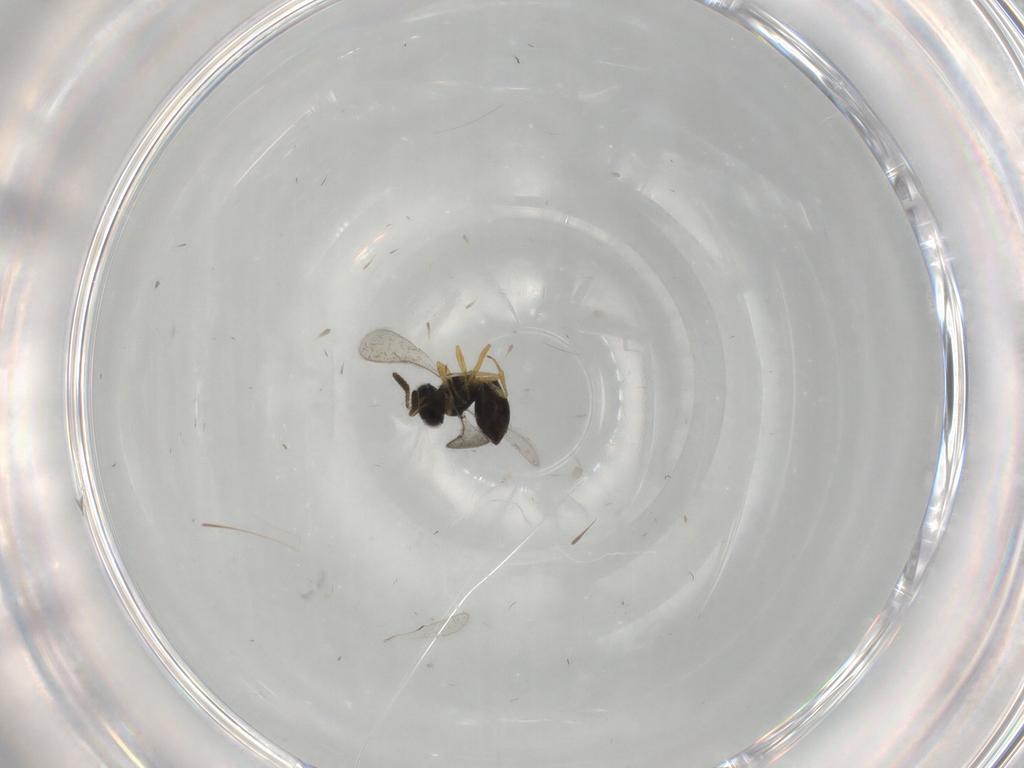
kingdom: Animalia
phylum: Arthropoda
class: Insecta
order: Hymenoptera
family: Scelionidae
